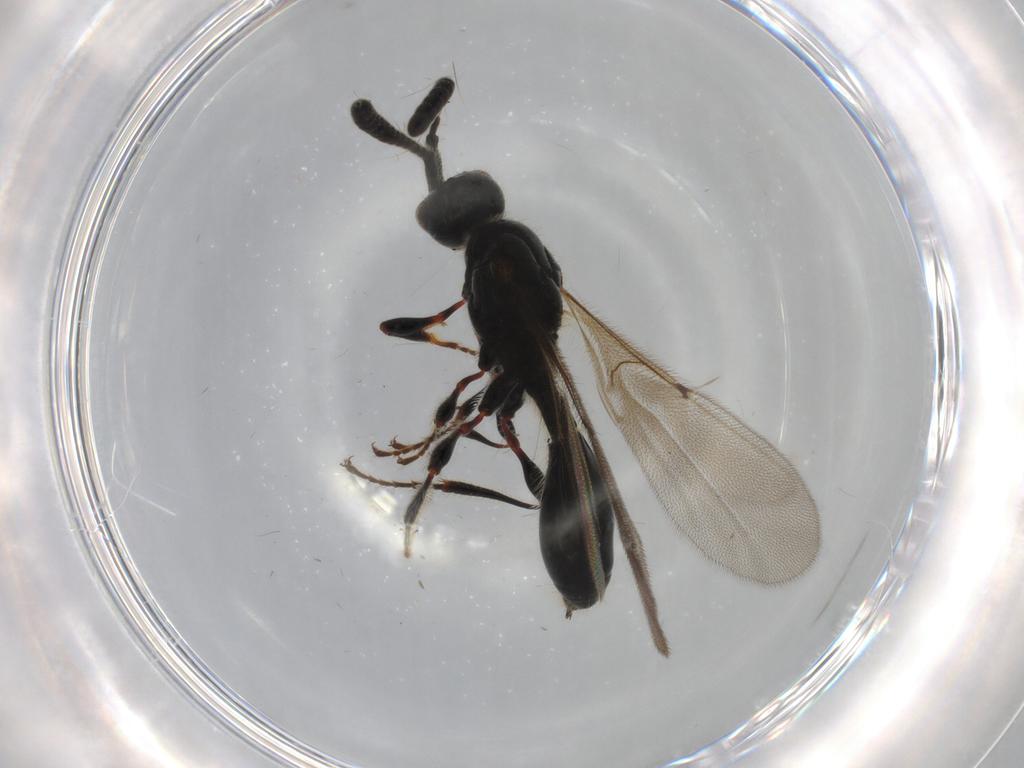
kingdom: Animalia
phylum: Arthropoda
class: Insecta
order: Hymenoptera
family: Diapriidae
